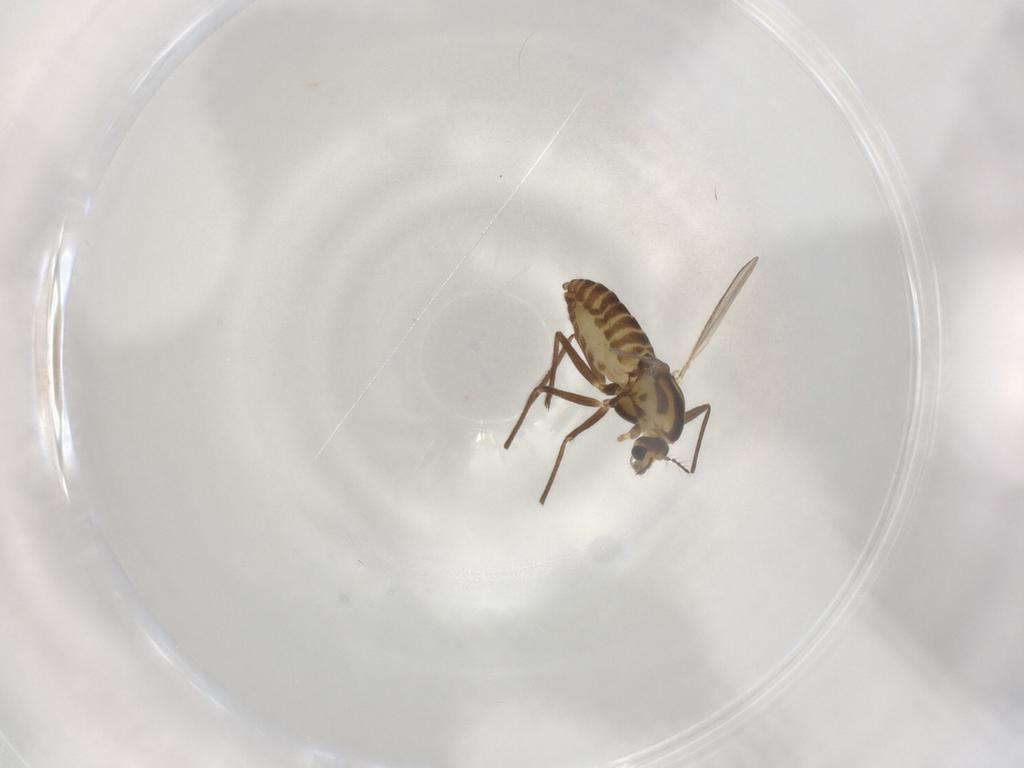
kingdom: Animalia
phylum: Arthropoda
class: Insecta
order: Diptera
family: Chironomidae
